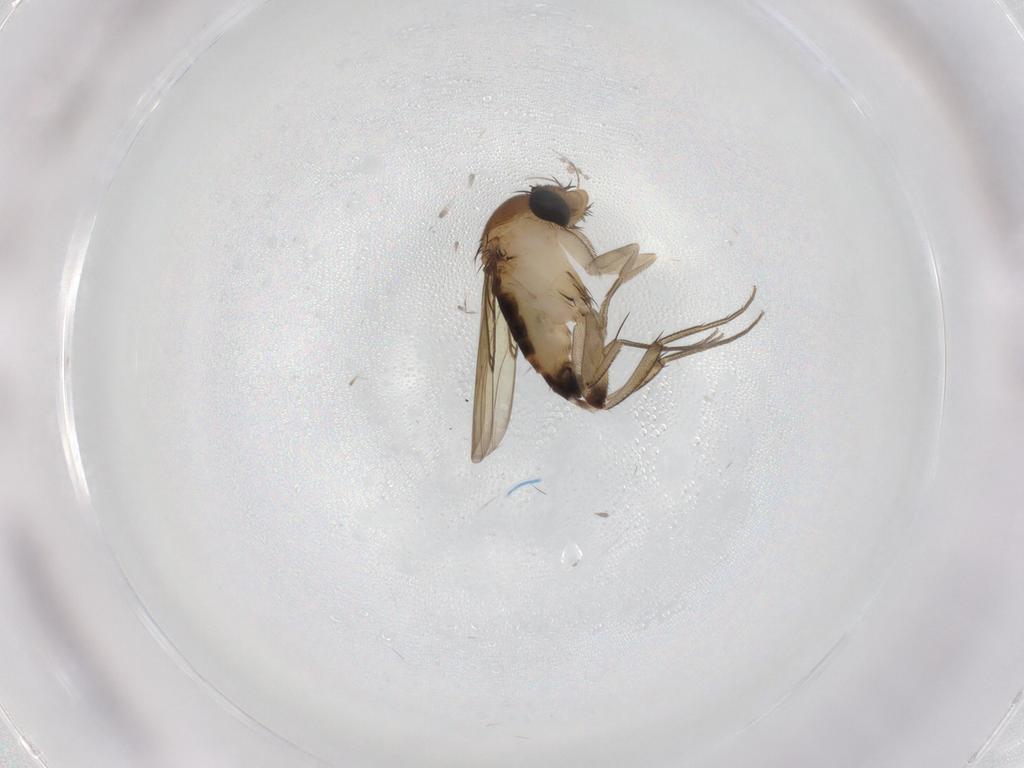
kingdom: Animalia
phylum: Arthropoda
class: Insecta
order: Diptera
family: Phoridae
